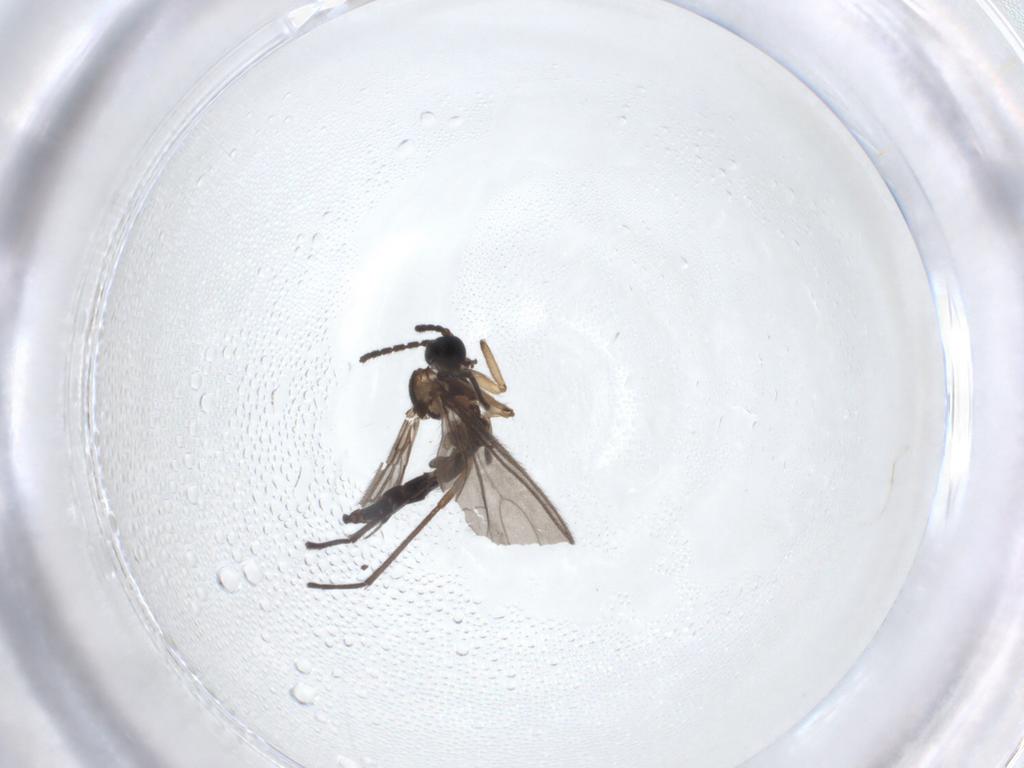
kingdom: Animalia
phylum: Arthropoda
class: Insecta
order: Diptera
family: Sciaridae
